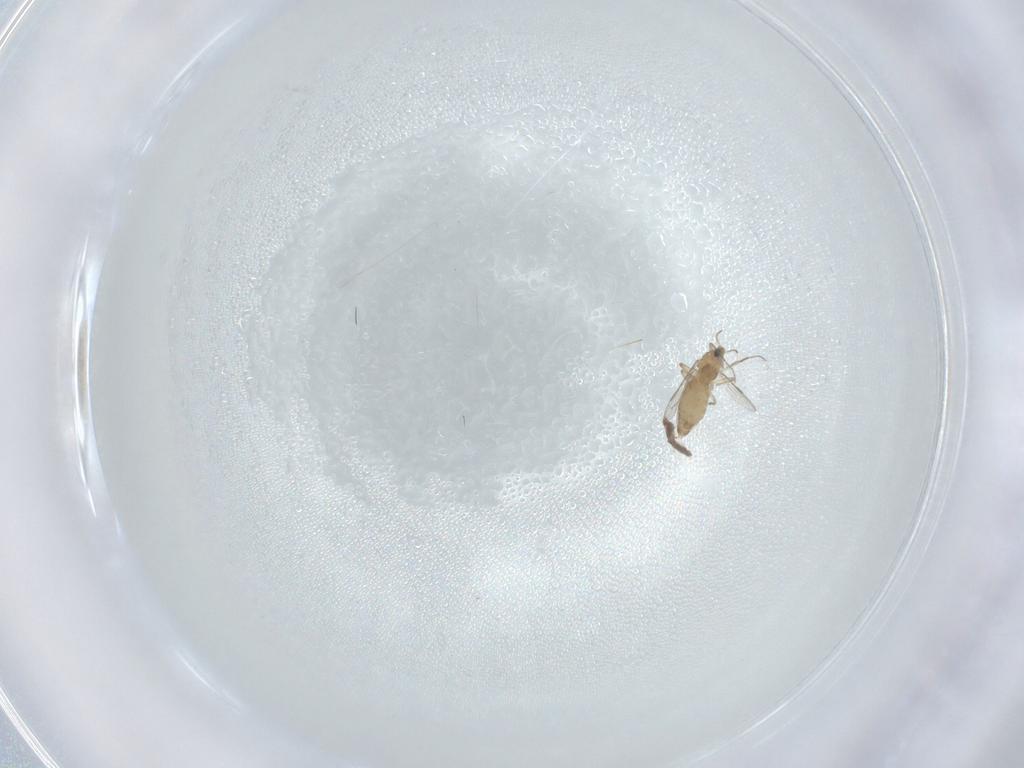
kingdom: Animalia
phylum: Arthropoda
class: Insecta
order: Diptera
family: Chironomidae
